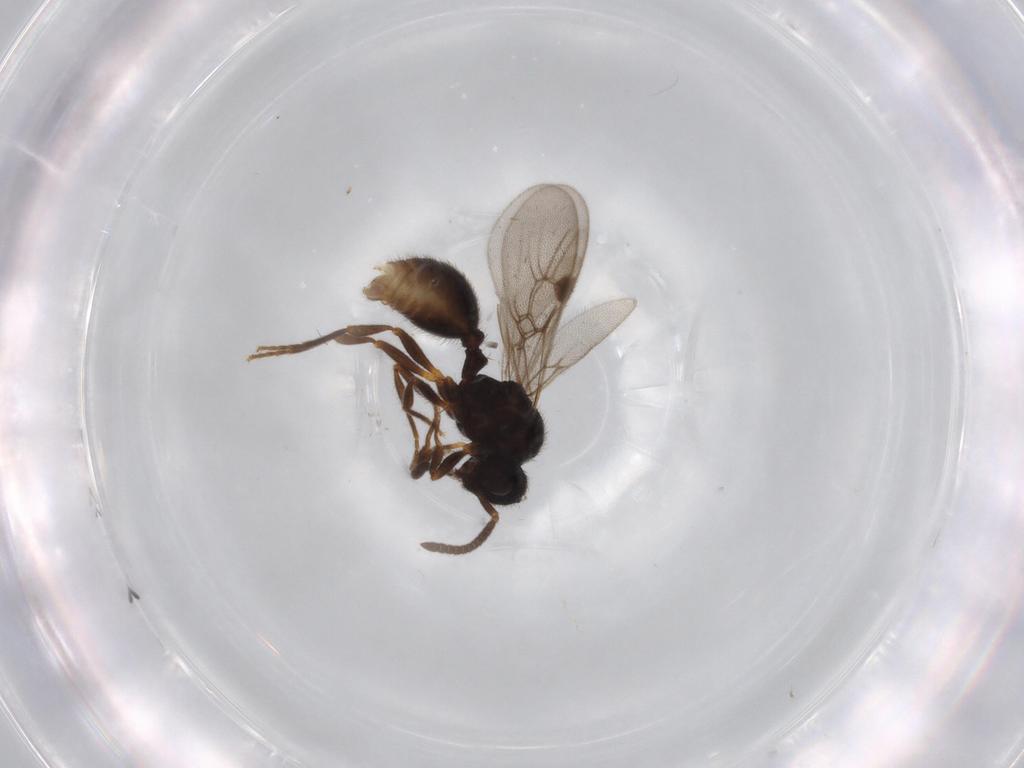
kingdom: Animalia
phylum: Arthropoda
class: Insecta
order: Hymenoptera
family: Formicidae
